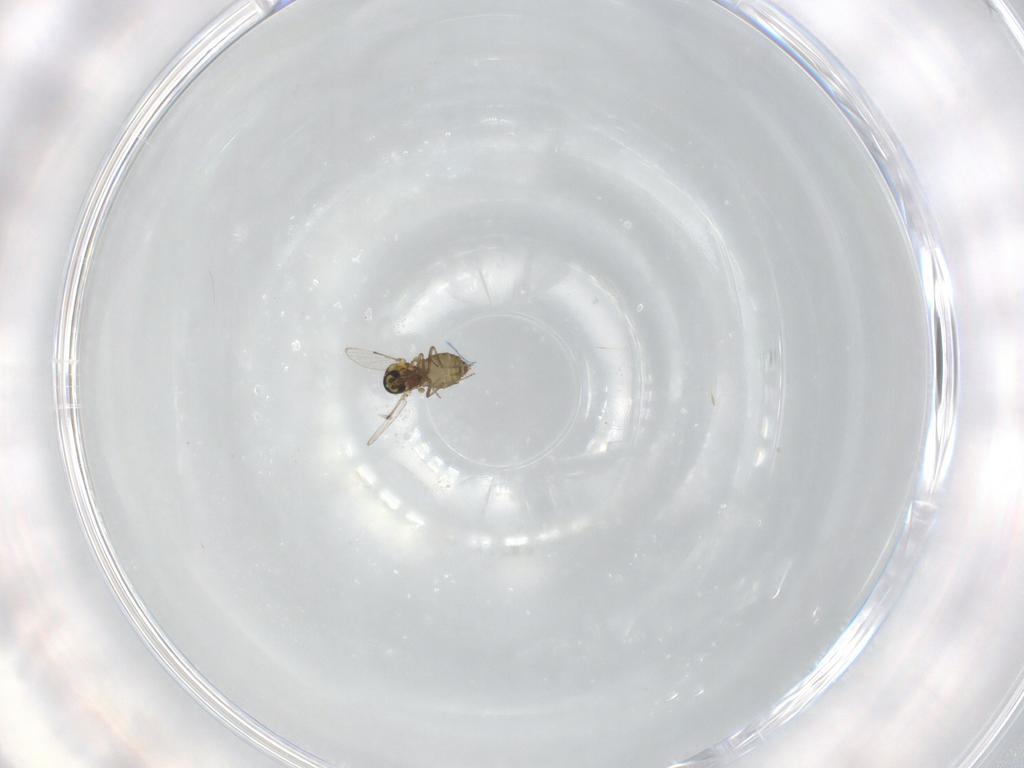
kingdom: Animalia
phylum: Arthropoda
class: Insecta
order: Diptera
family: Ceratopogonidae
